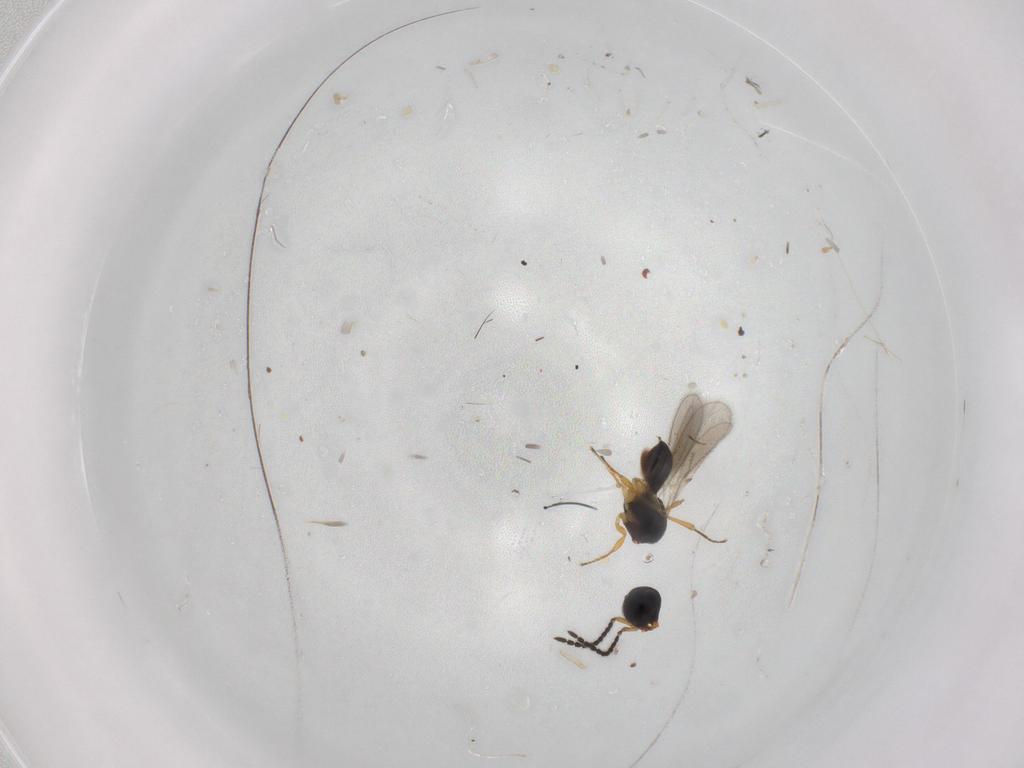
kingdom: Animalia
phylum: Arthropoda
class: Insecta
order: Hymenoptera
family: Scelionidae
